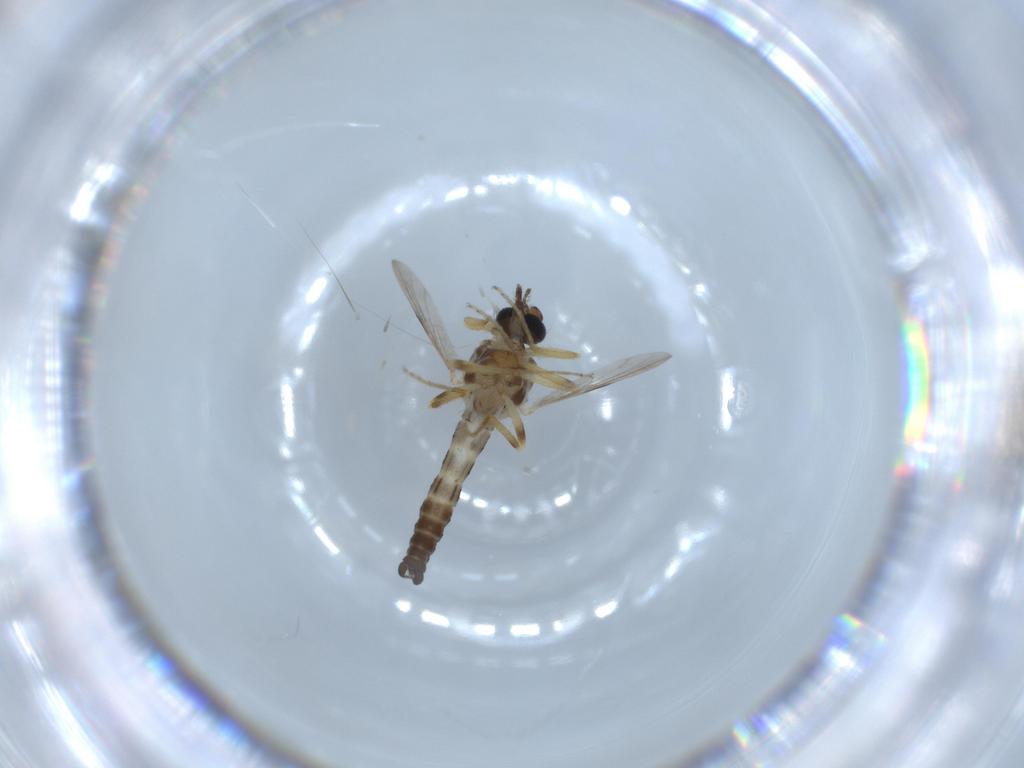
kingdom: Animalia
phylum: Arthropoda
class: Insecta
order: Diptera
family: Ceratopogonidae
